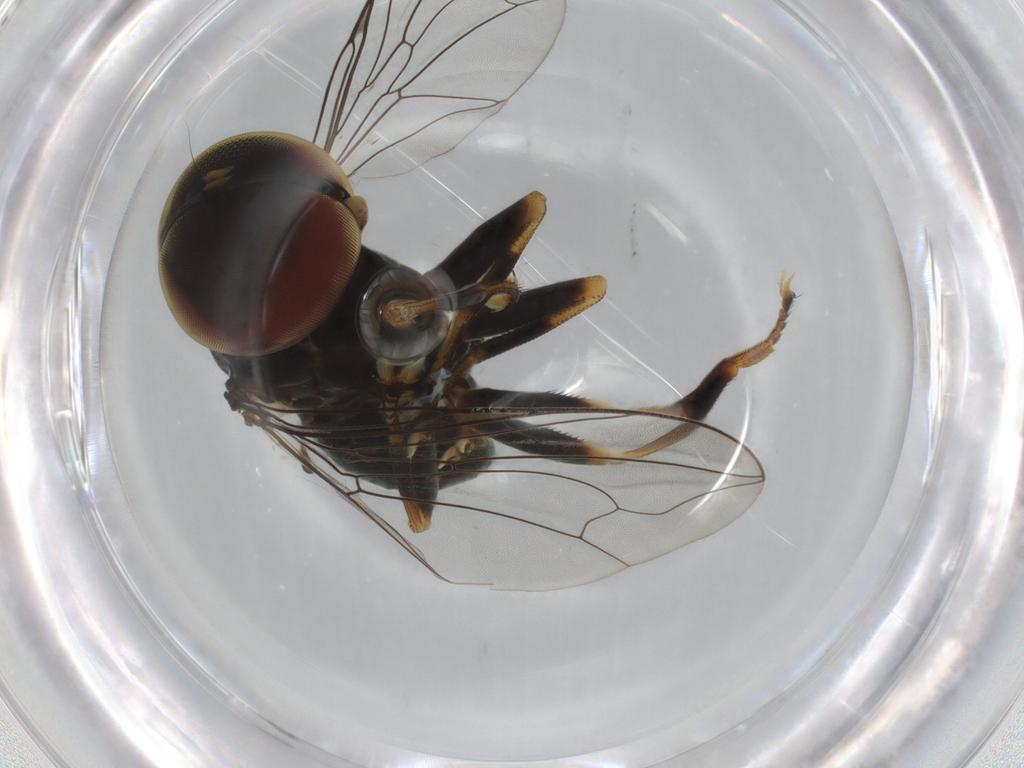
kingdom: Animalia
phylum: Arthropoda
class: Insecta
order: Diptera
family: Pipunculidae
